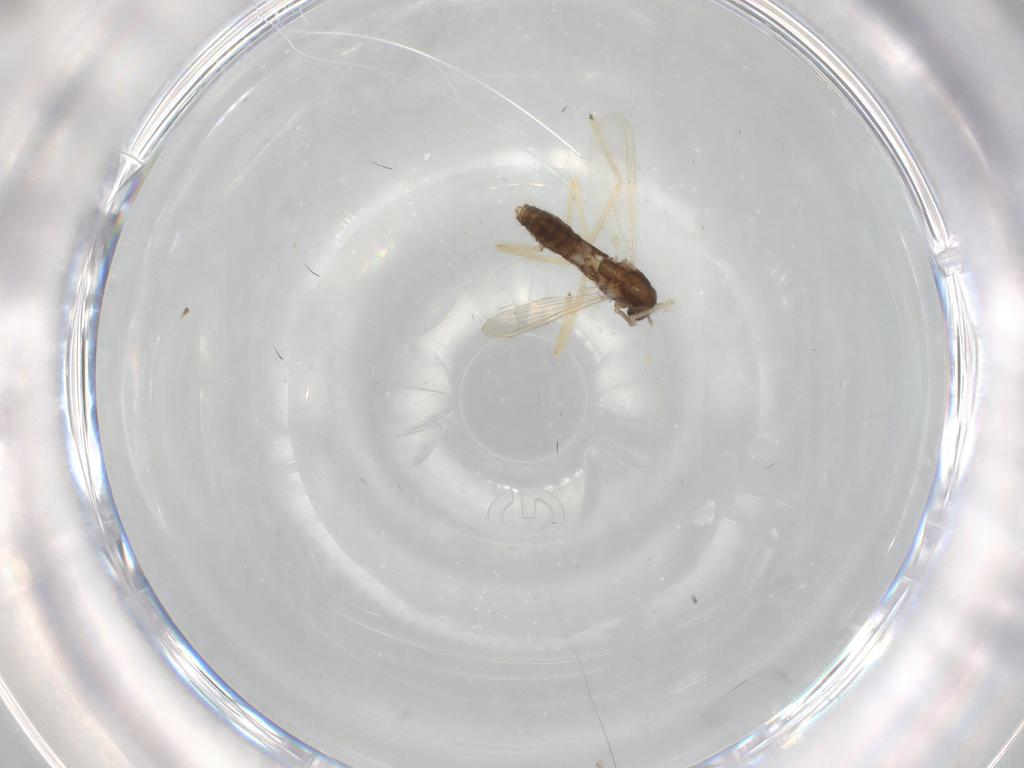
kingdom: Animalia
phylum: Arthropoda
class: Insecta
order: Diptera
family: Chironomidae
